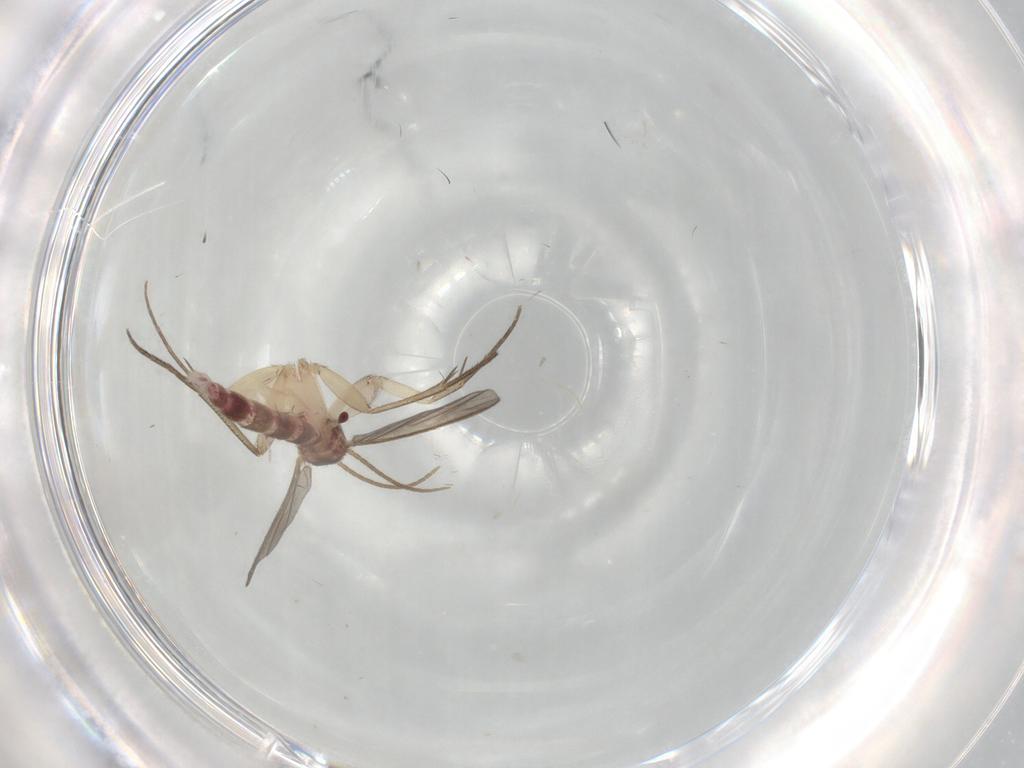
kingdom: Animalia
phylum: Arthropoda
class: Insecta
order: Diptera
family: Mycetophilidae
